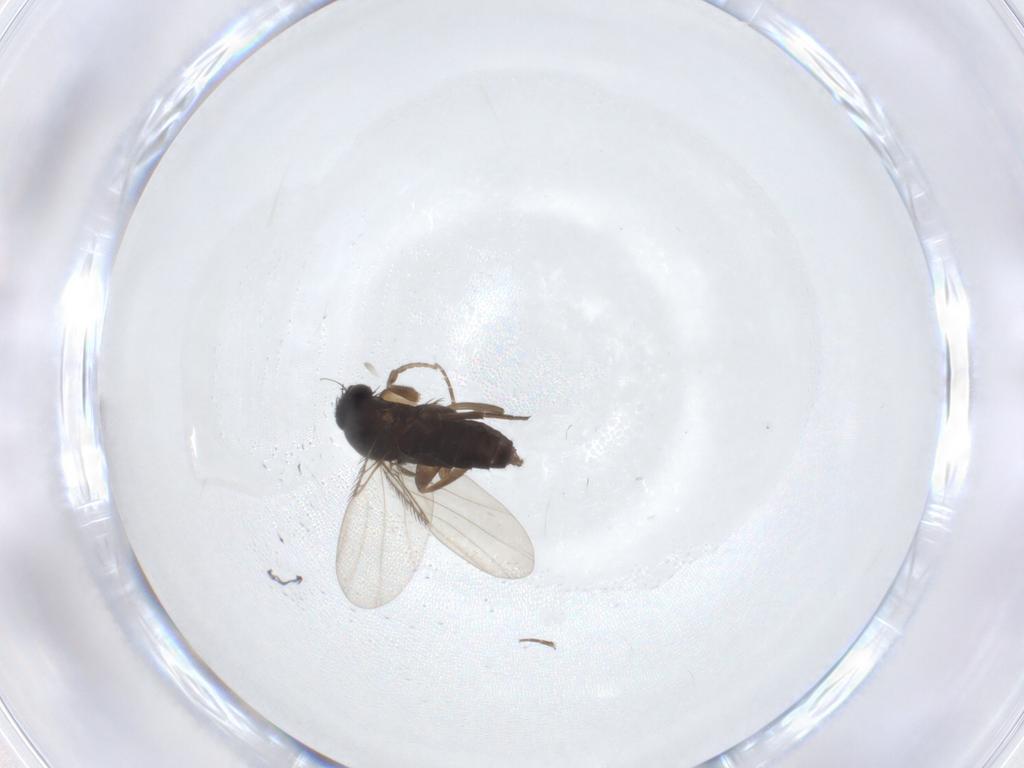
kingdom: Animalia
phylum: Arthropoda
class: Insecta
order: Diptera
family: Phoridae
